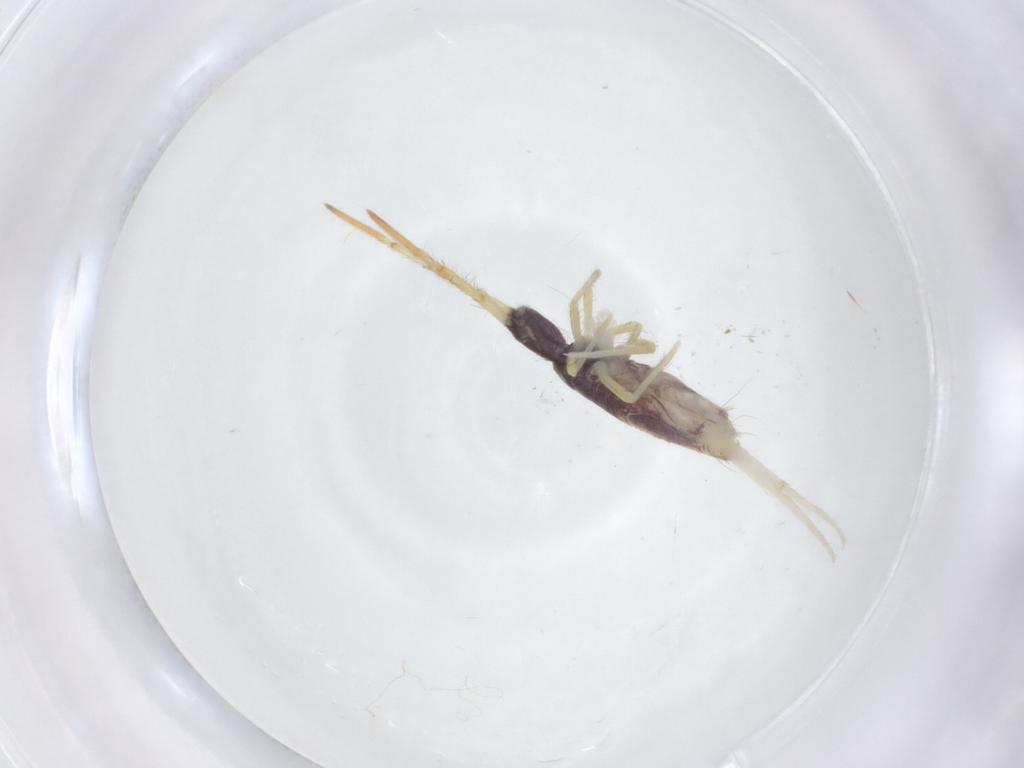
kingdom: Animalia
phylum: Arthropoda
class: Collembola
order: Entomobryomorpha
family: Entomobryidae
